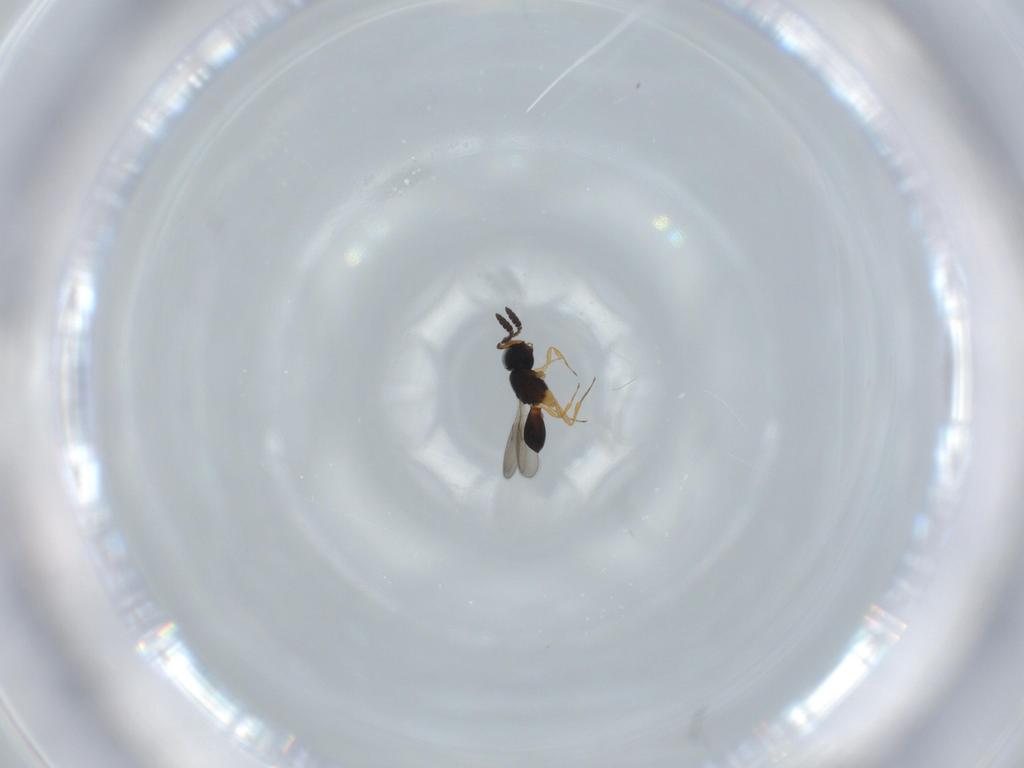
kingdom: Animalia
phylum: Arthropoda
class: Insecta
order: Hymenoptera
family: Scelionidae
